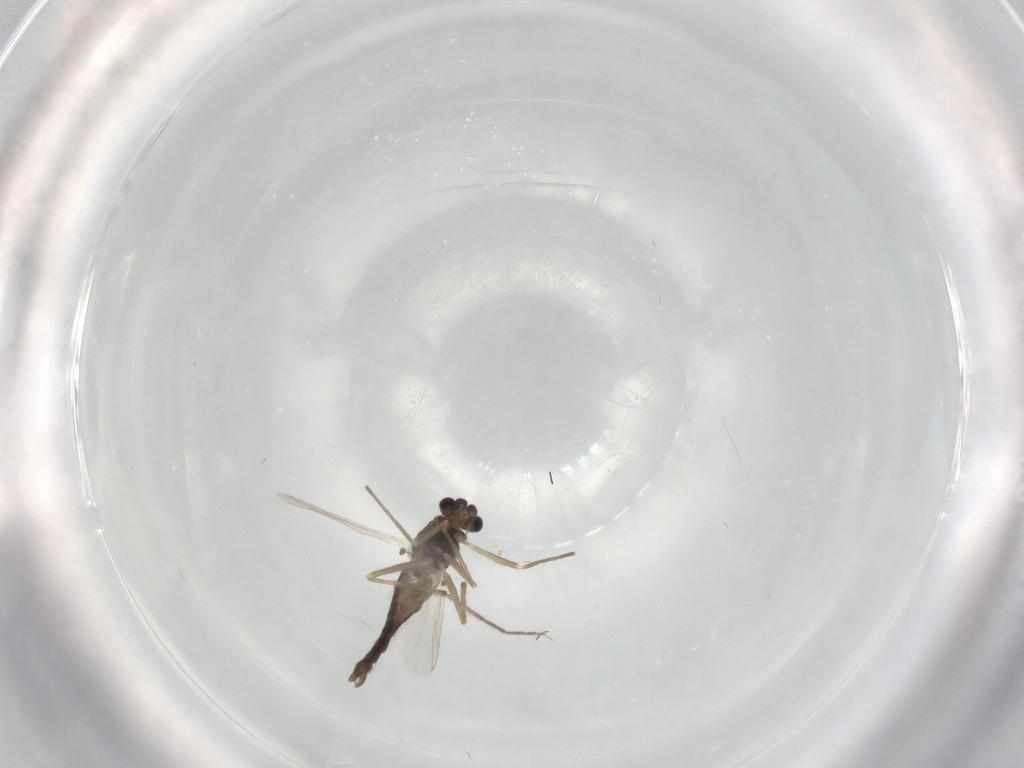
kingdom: Animalia
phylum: Arthropoda
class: Insecta
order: Diptera
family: Chironomidae
